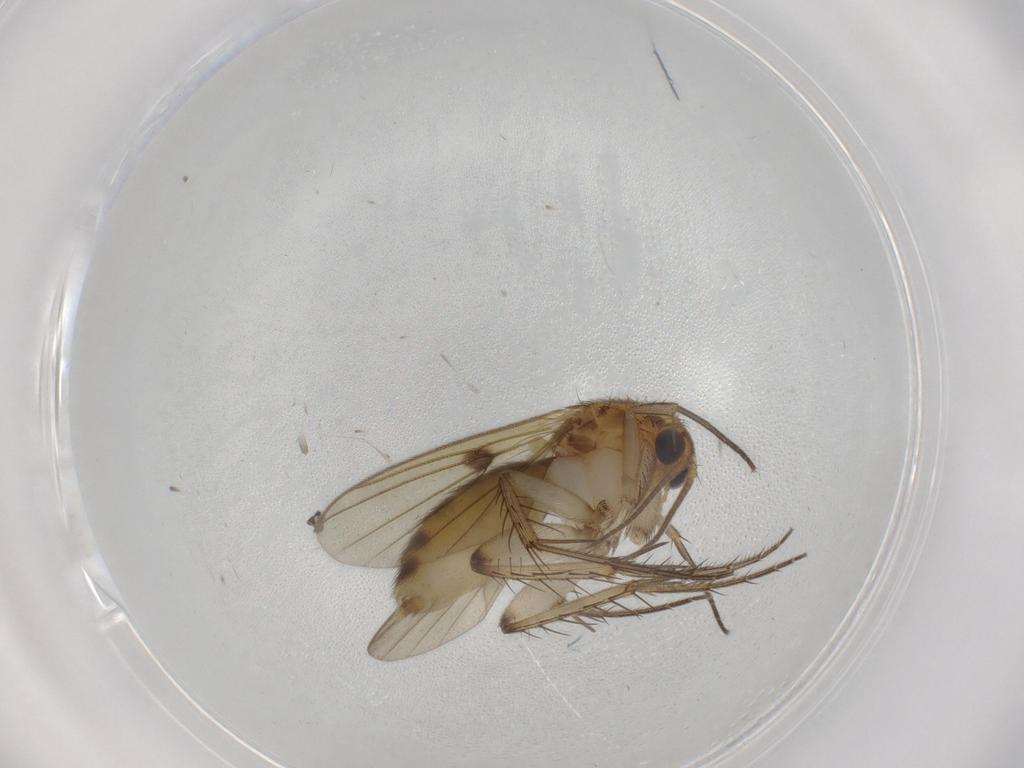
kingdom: Animalia
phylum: Arthropoda
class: Insecta
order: Diptera
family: Mycetophilidae
